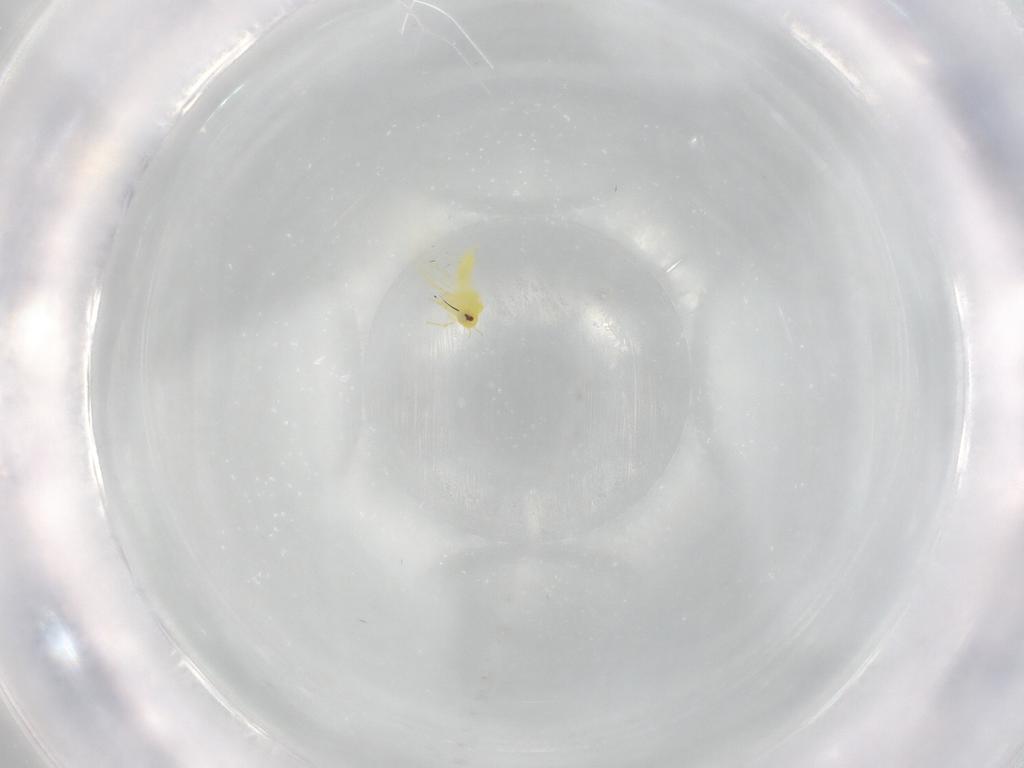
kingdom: Animalia
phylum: Arthropoda
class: Insecta
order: Hemiptera
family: Aleyrodidae
